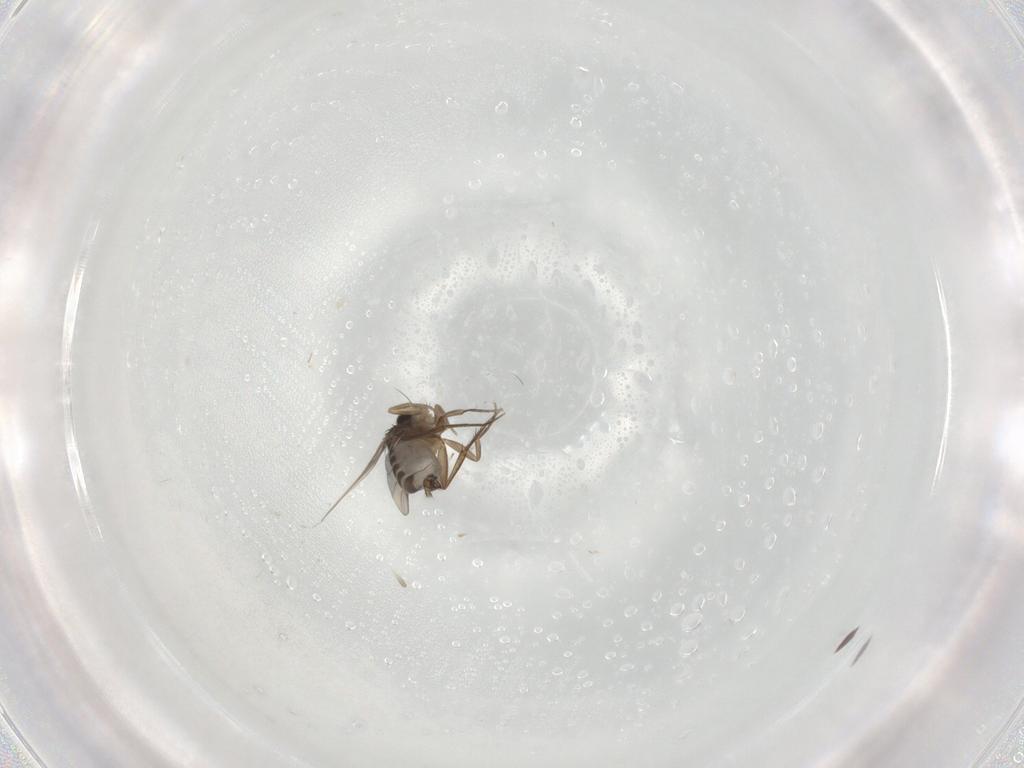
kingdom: Animalia
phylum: Arthropoda
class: Insecta
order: Diptera
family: Phoridae
